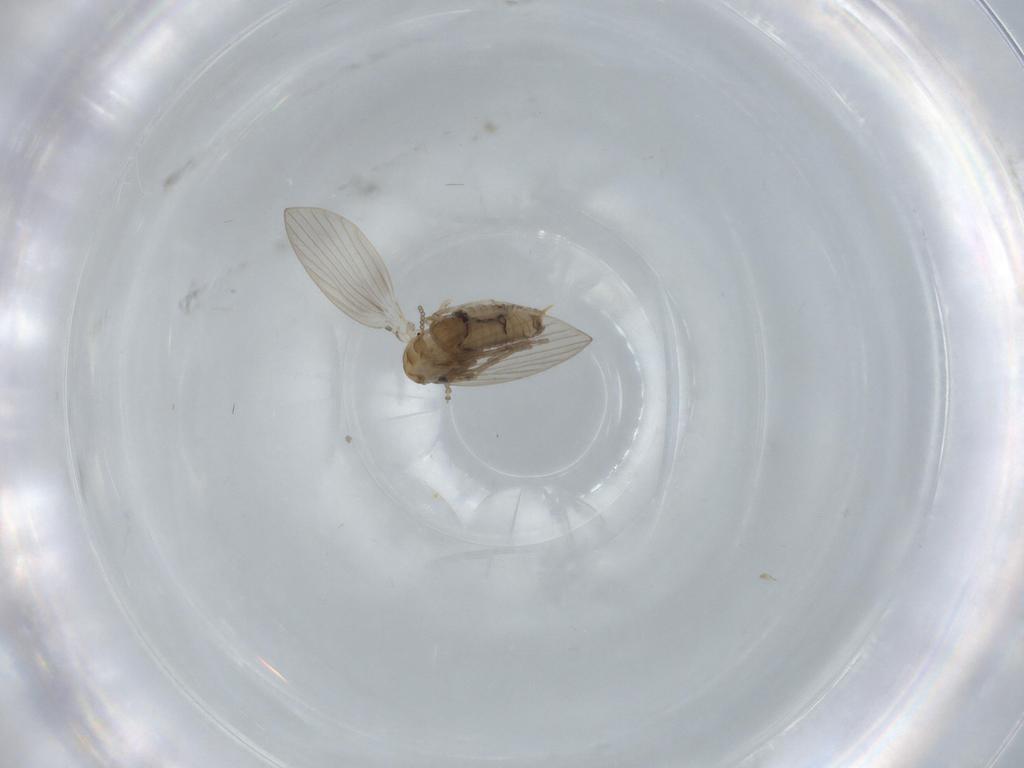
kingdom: Animalia
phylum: Arthropoda
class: Insecta
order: Diptera
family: Psychodidae
